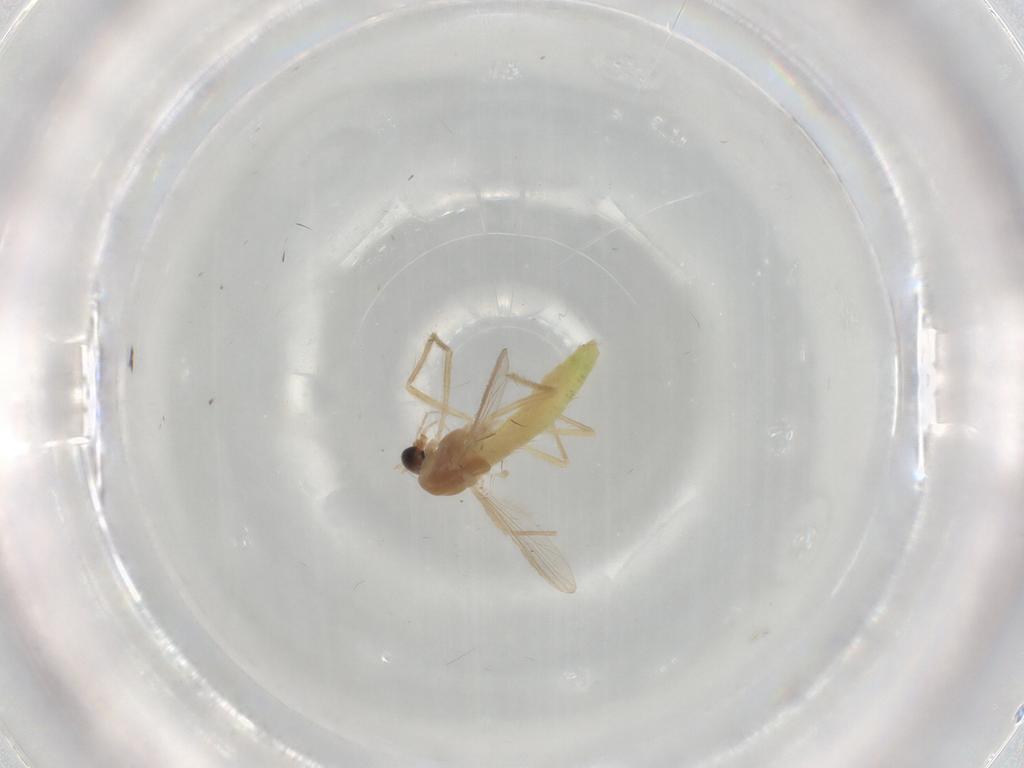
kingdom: Animalia
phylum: Arthropoda
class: Insecta
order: Diptera
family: Chironomidae
